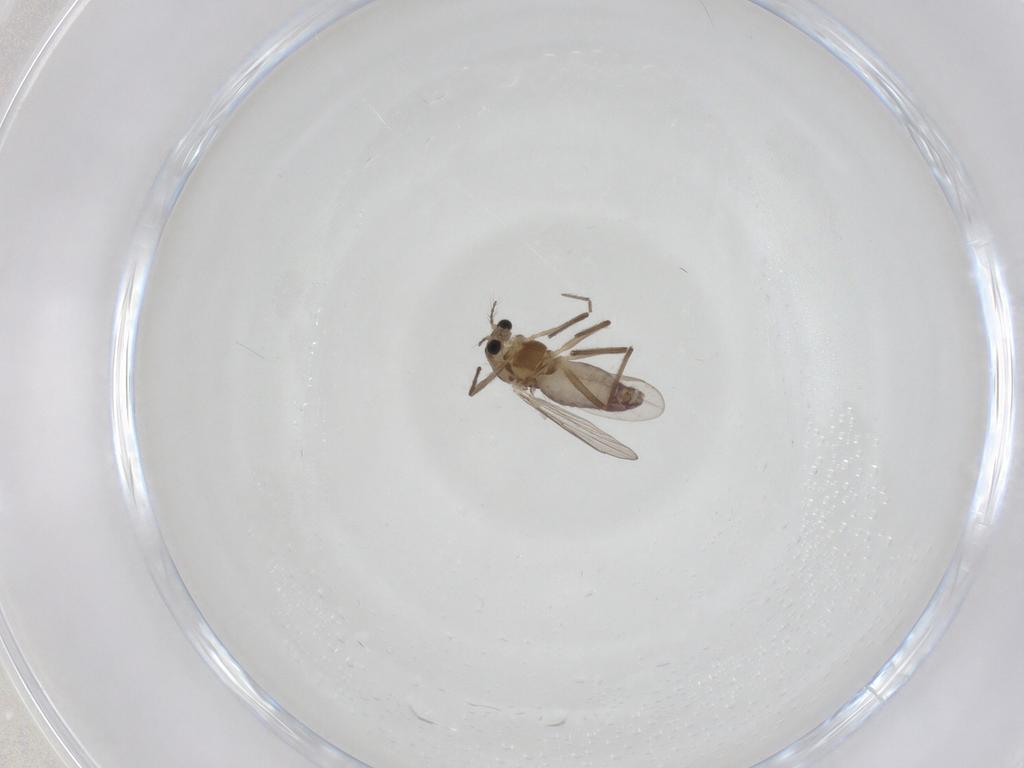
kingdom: Animalia
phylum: Arthropoda
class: Insecta
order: Diptera
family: Chironomidae
